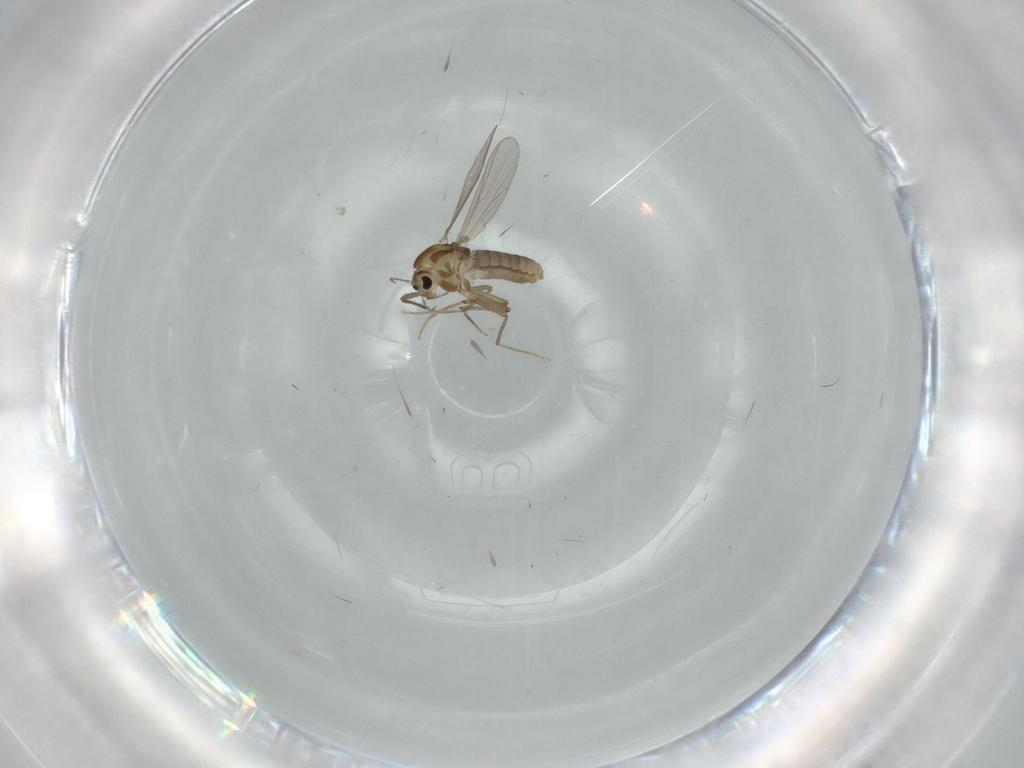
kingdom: Animalia
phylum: Arthropoda
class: Insecta
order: Diptera
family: Chironomidae
